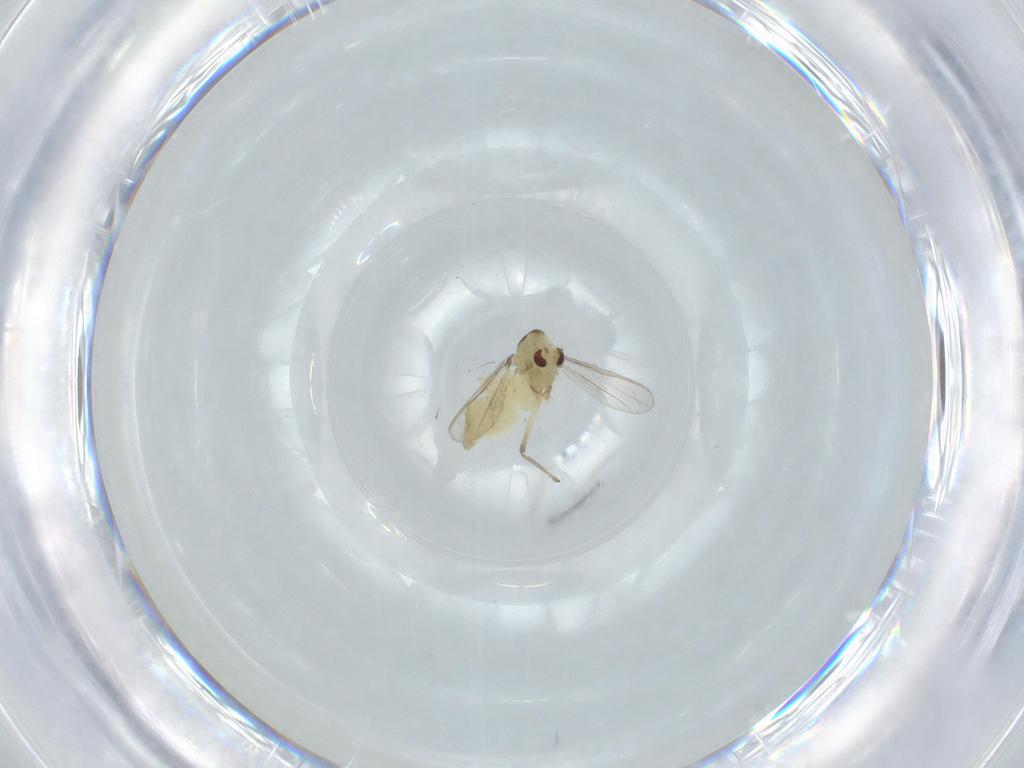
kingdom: Animalia
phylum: Arthropoda
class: Insecta
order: Diptera
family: Chironomidae
